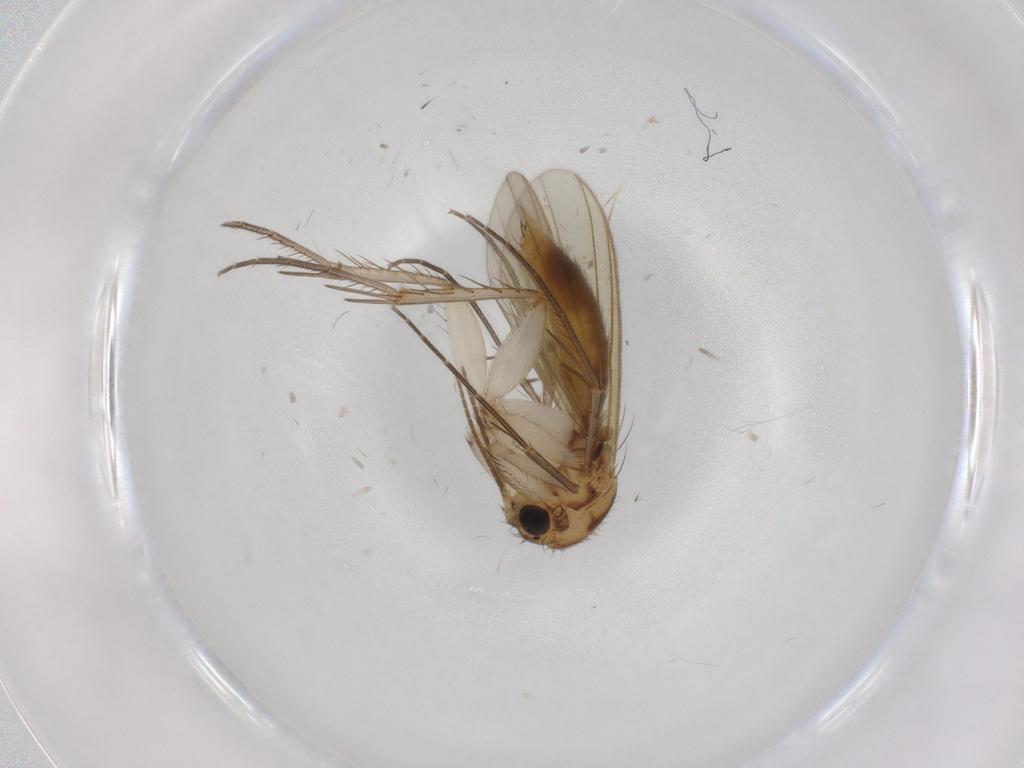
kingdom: Animalia
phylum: Arthropoda
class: Insecta
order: Diptera
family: Mycetophilidae
